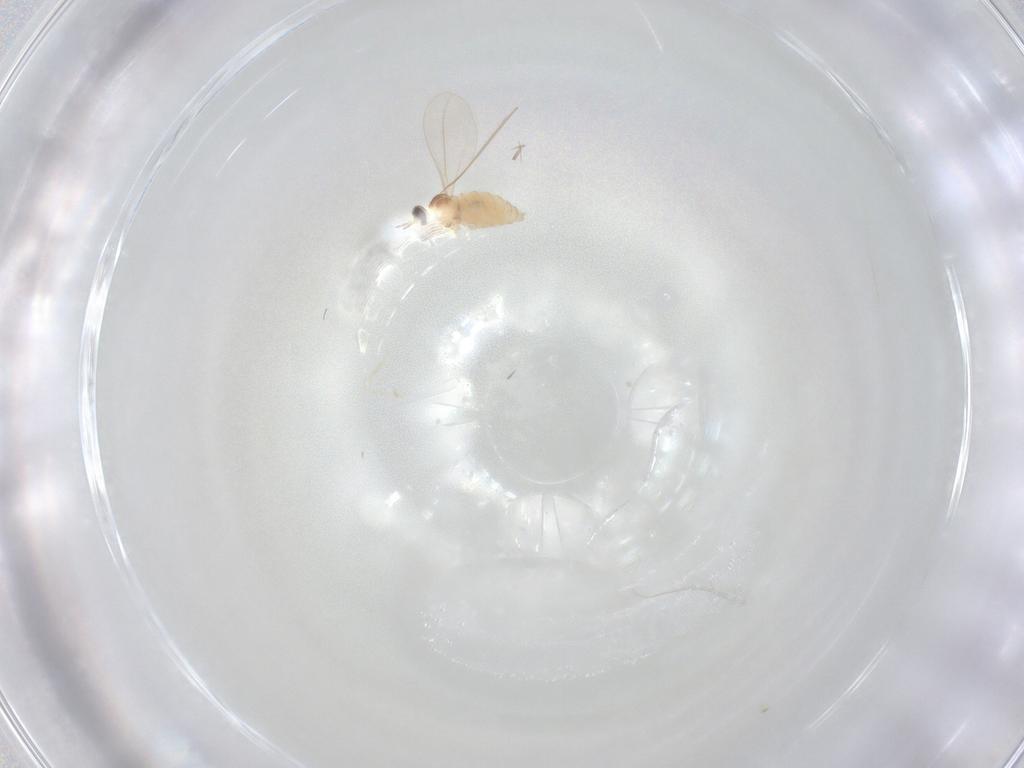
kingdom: Animalia
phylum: Arthropoda
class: Insecta
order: Diptera
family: Cecidomyiidae
